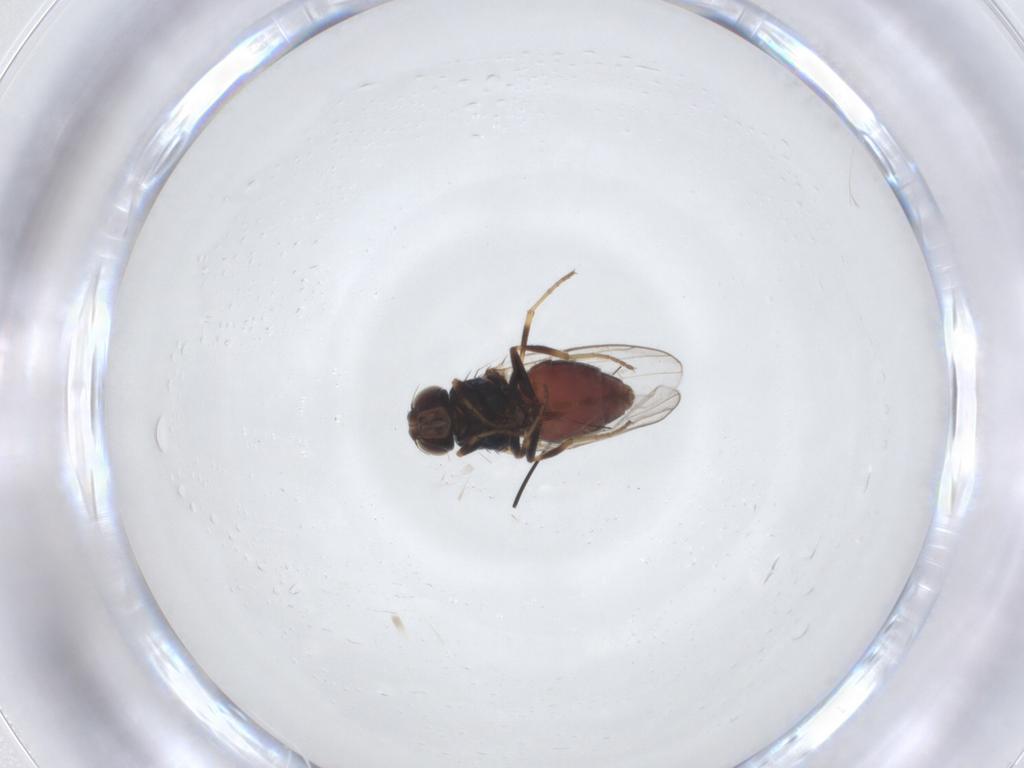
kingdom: Animalia
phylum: Arthropoda
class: Insecta
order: Diptera
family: Chloropidae
